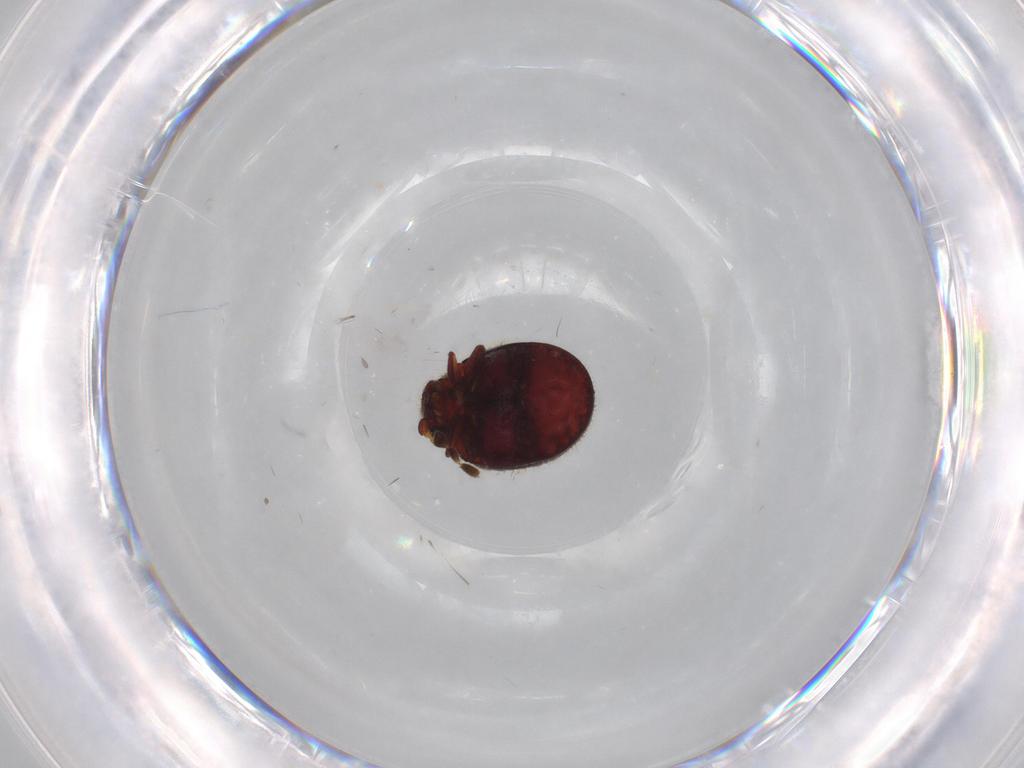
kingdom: Animalia
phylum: Arthropoda
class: Insecta
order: Coleoptera
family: Ptinidae
